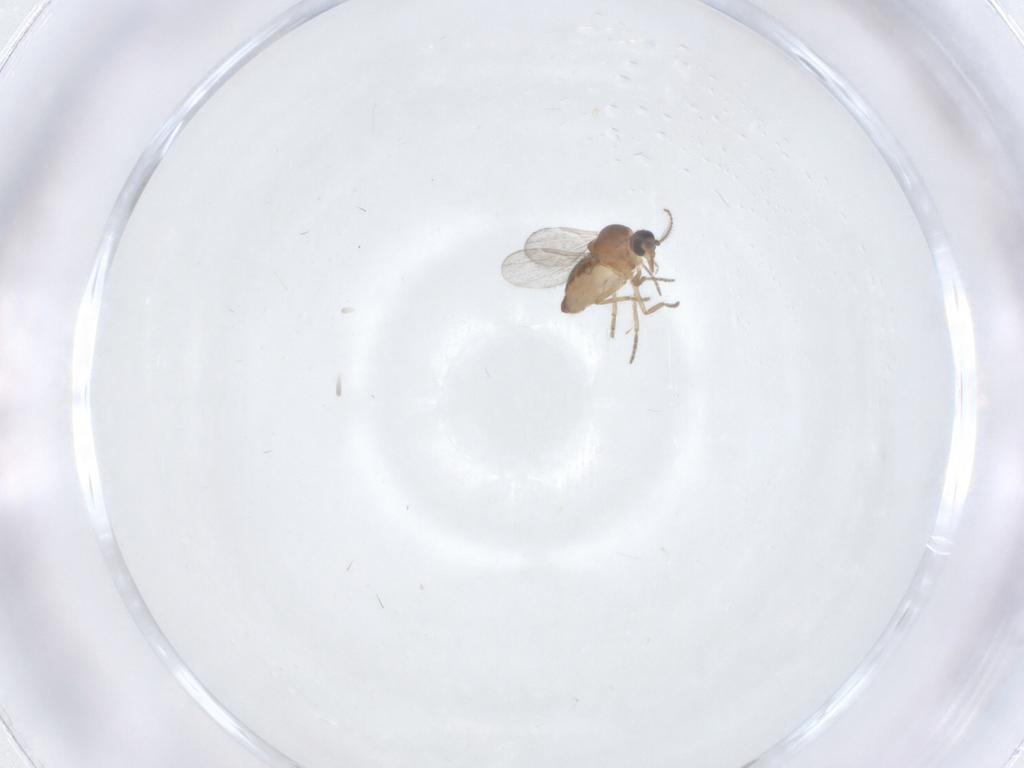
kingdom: Animalia
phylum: Arthropoda
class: Insecta
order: Diptera
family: Ceratopogonidae
